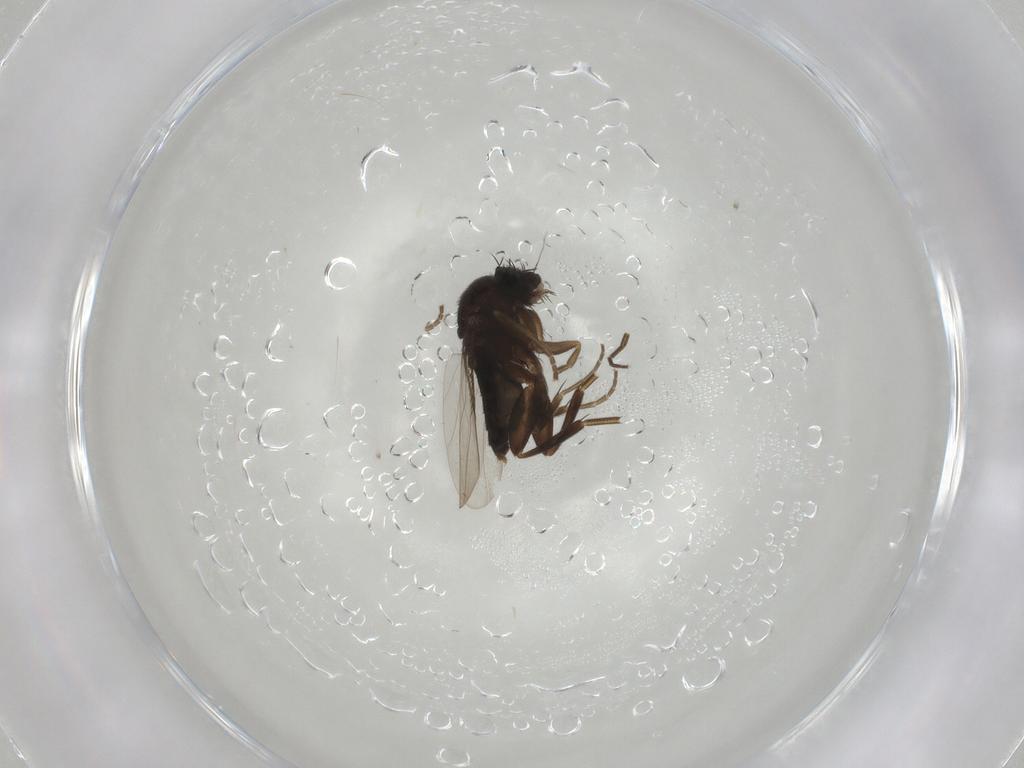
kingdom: Animalia
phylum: Arthropoda
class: Insecta
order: Diptera
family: Phoridae
